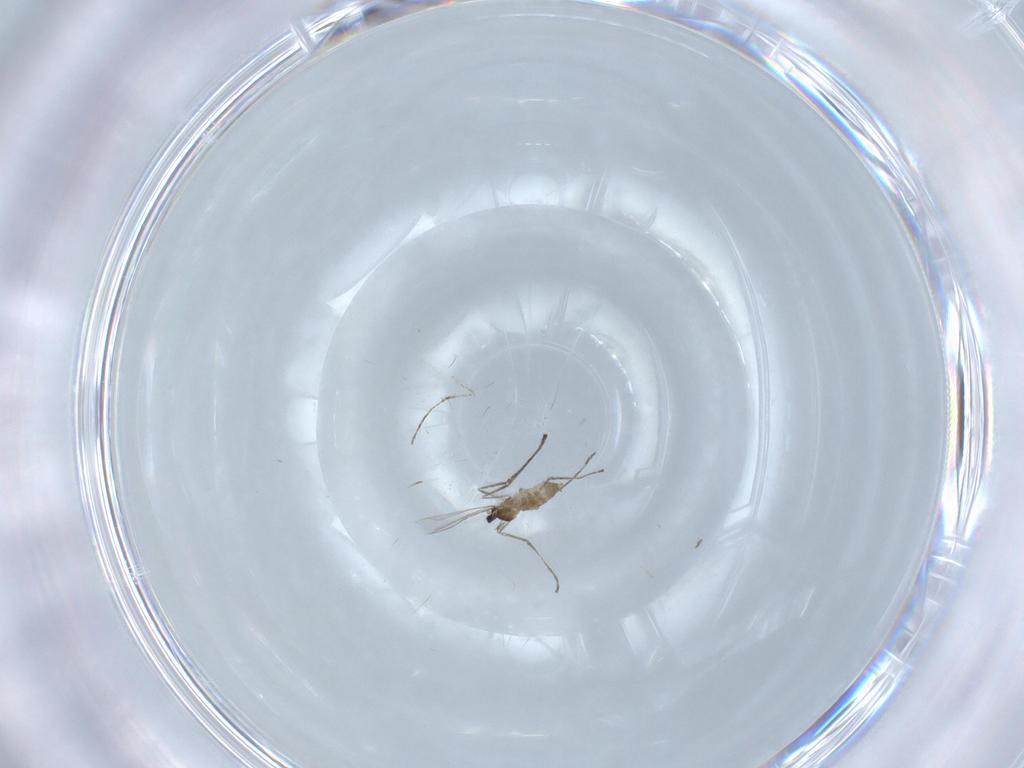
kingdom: Animalia
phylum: Arthropoda
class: Insecta
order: Diptera
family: Cecidomyiidae
